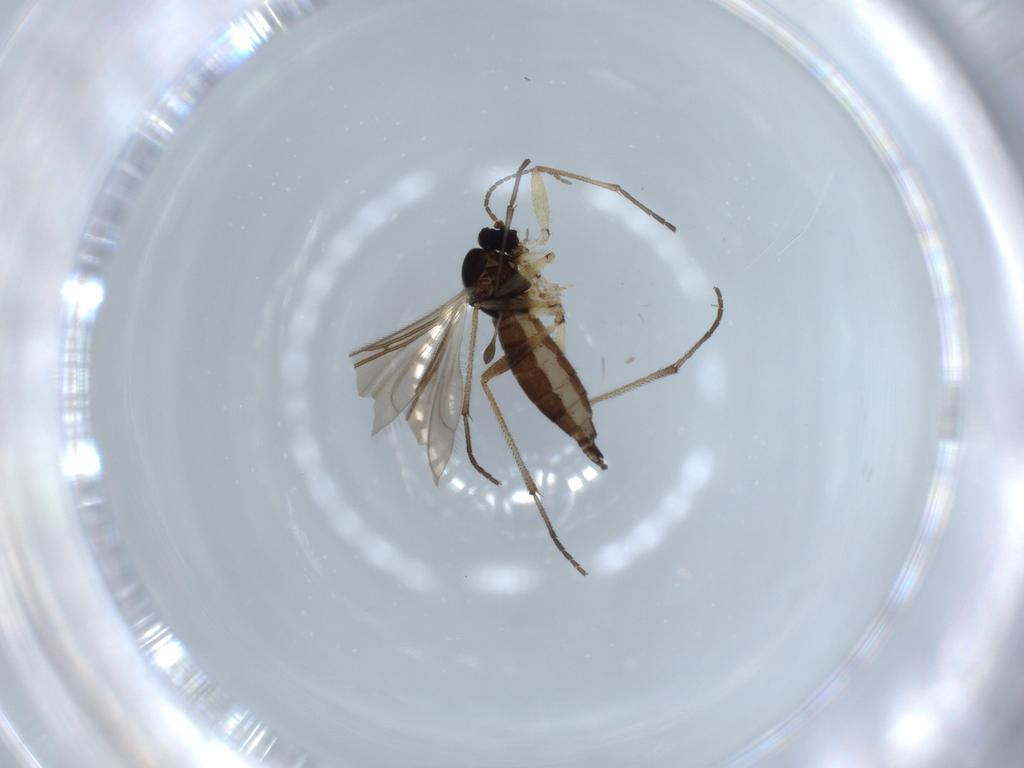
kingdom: Animalia
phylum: Arthropoda
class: Insecta
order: Diptera
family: Sciaridae
